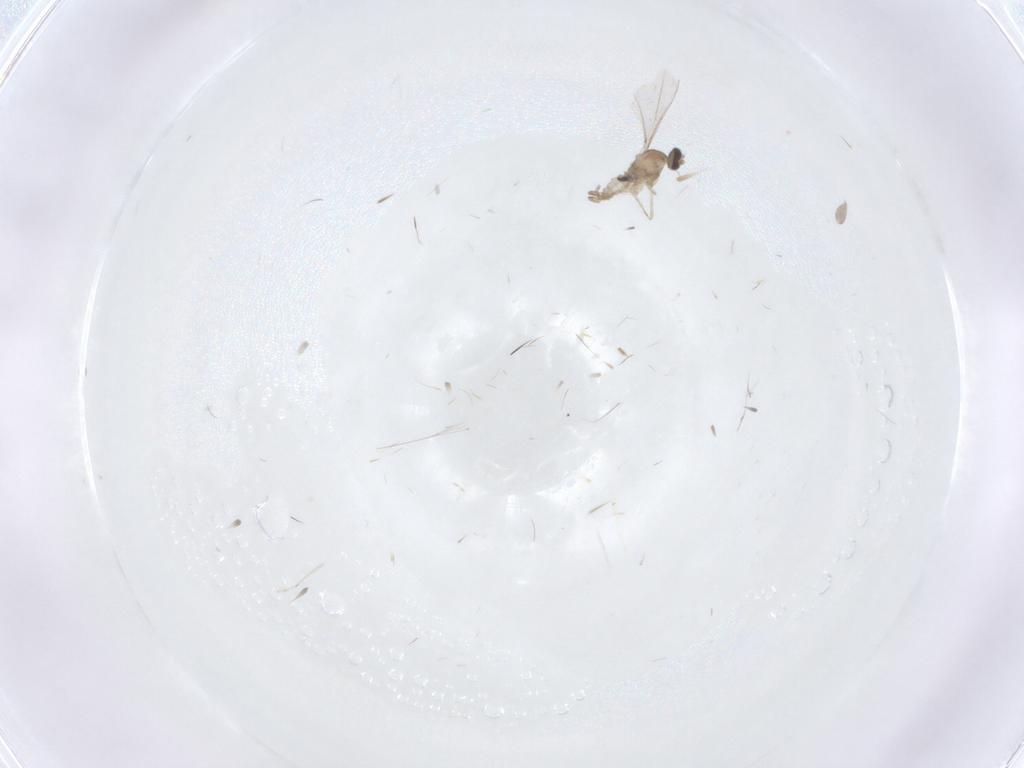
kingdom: Animalia
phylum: Arthropoda
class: Insecta
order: Diptera
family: Cecidomyiidae
